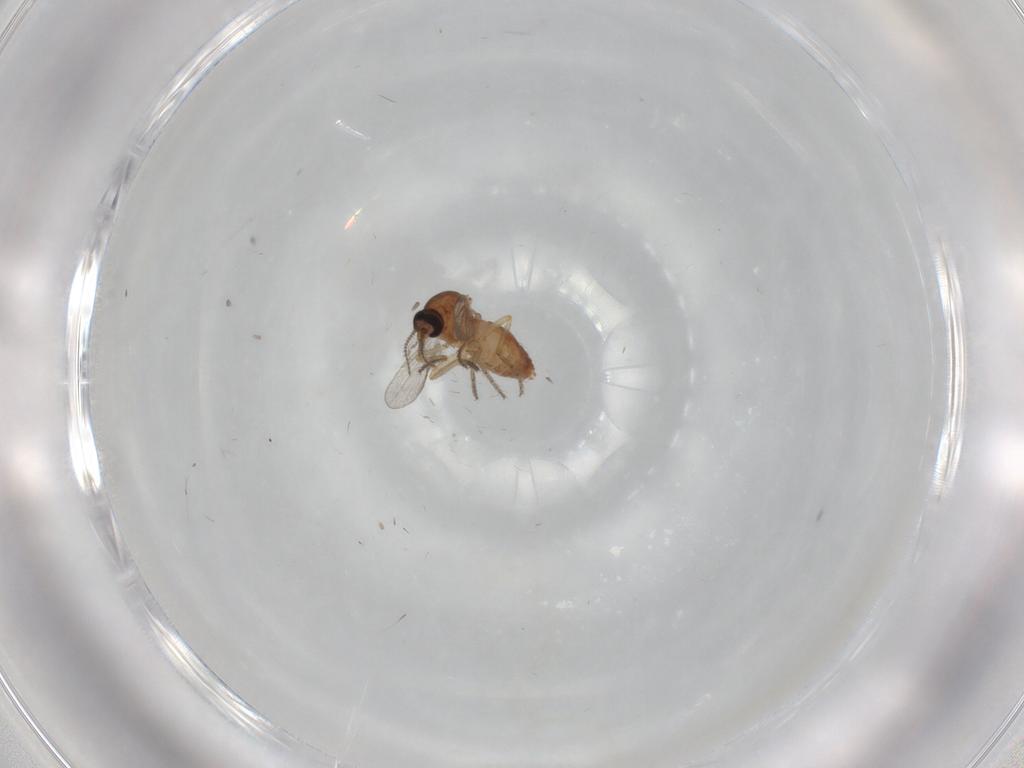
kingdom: Animalia
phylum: Arthropoda
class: Insecta
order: Diptera
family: Ceratopogonidae
